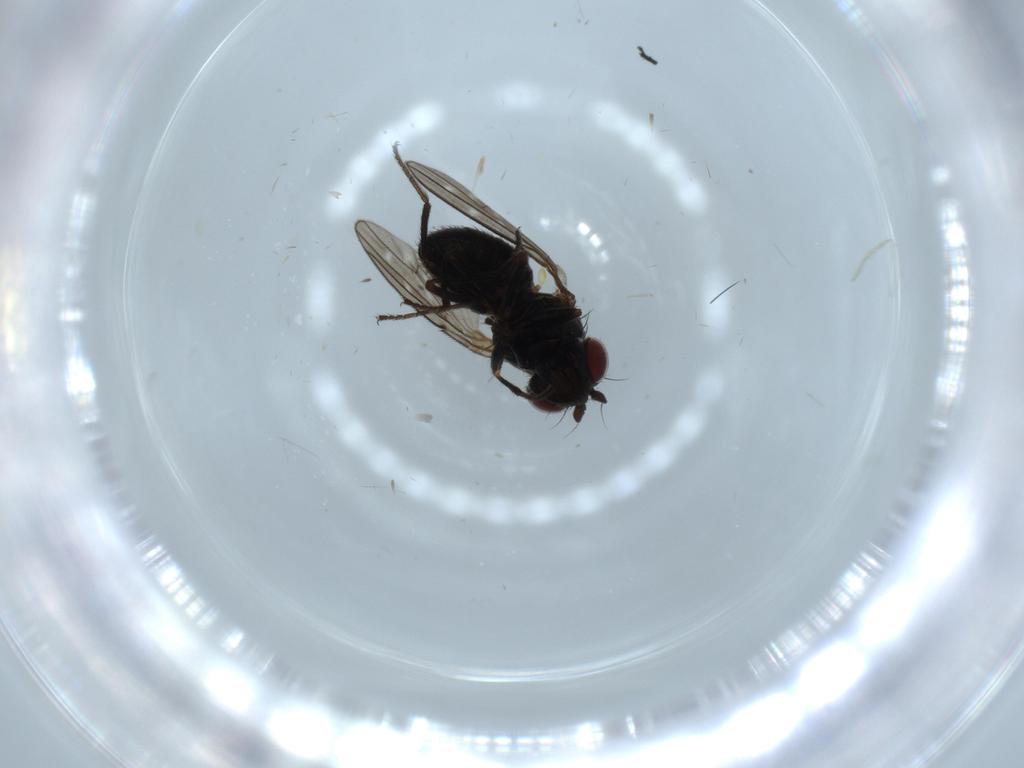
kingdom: Animalia
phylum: Arthropoda
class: Insecta
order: Diptera
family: Ephydridae
